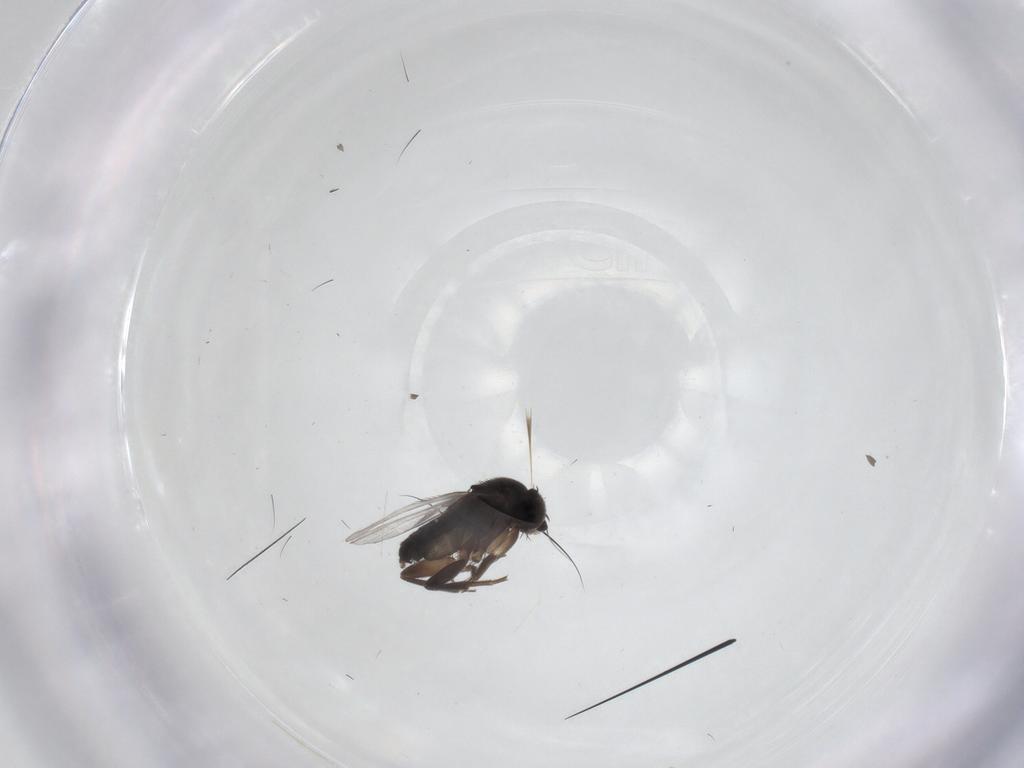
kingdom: Animalia
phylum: Arthropoda
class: Insecta
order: Diptera
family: Phoridae
